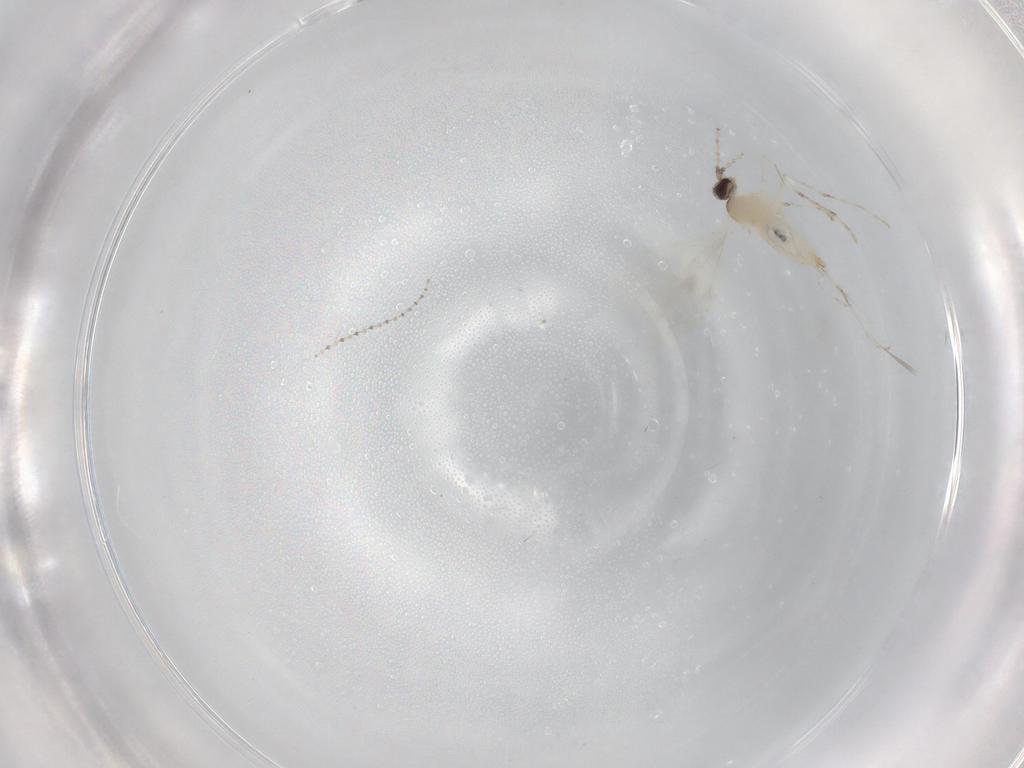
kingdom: Animalia
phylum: Arthropoda
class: Insecta
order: Diptera
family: Cecidomyiidae
